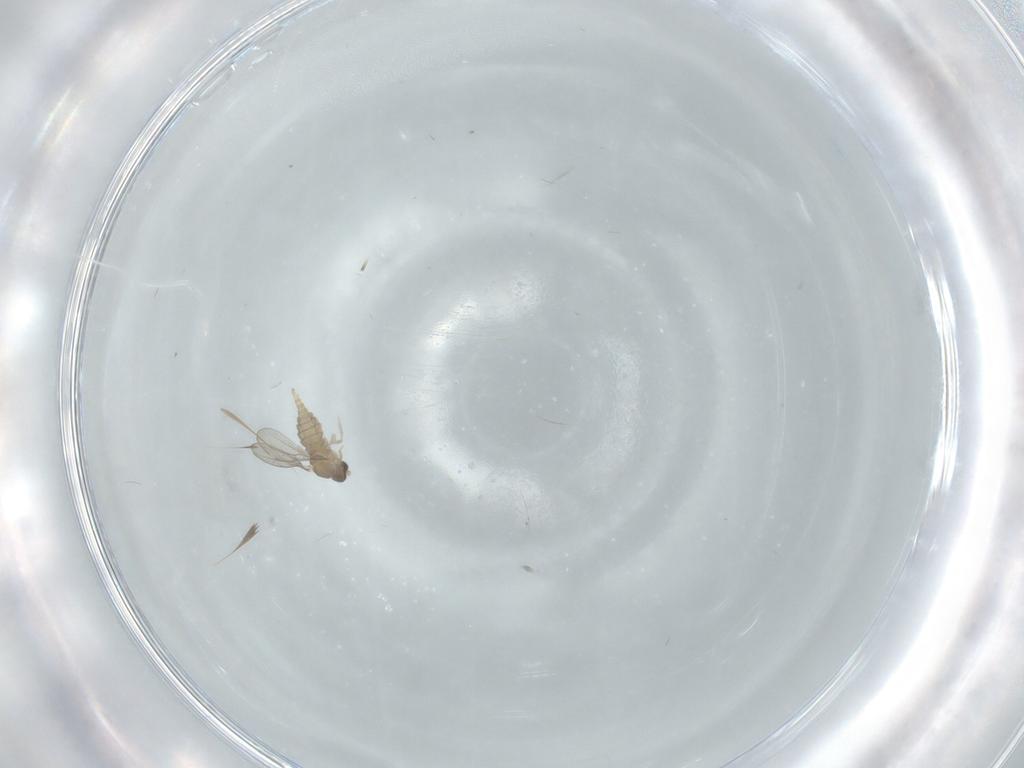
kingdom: Animalia
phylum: Arthropoda
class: Insecta
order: Diptera
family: Cecidomyiidae
